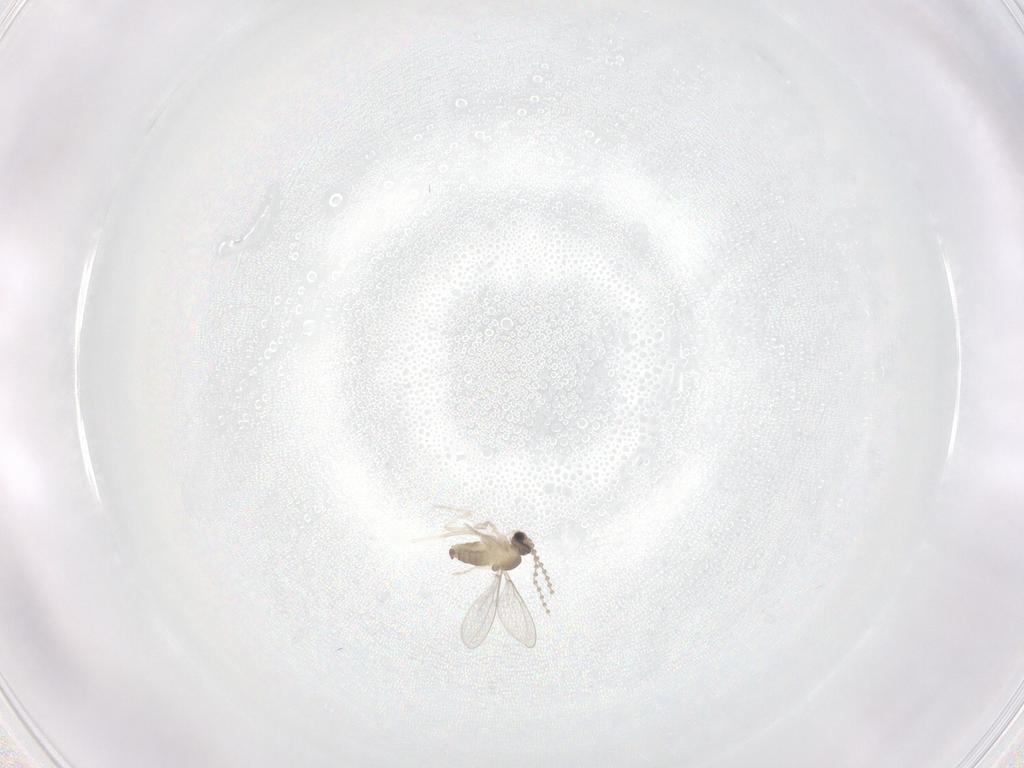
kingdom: Animalia
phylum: Arthropoda
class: Insecta
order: Diptera
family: Cecidomyiidae
